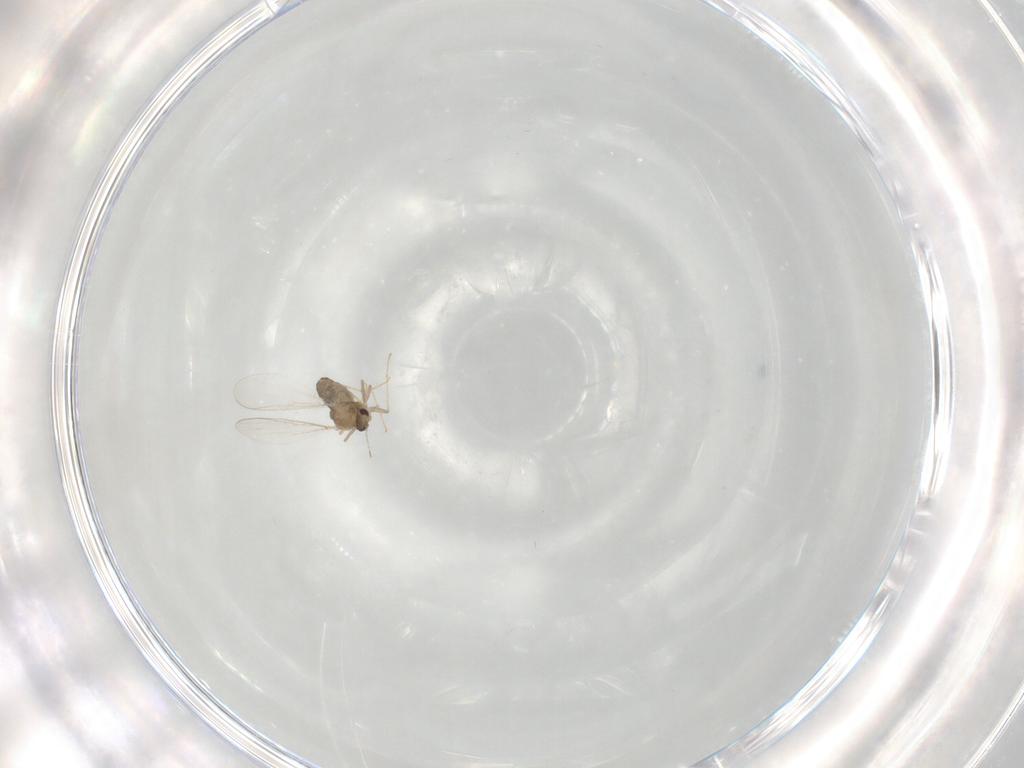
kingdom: Animalia
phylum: Arthropoda
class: Insecta
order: Diptera
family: Chironomidae
